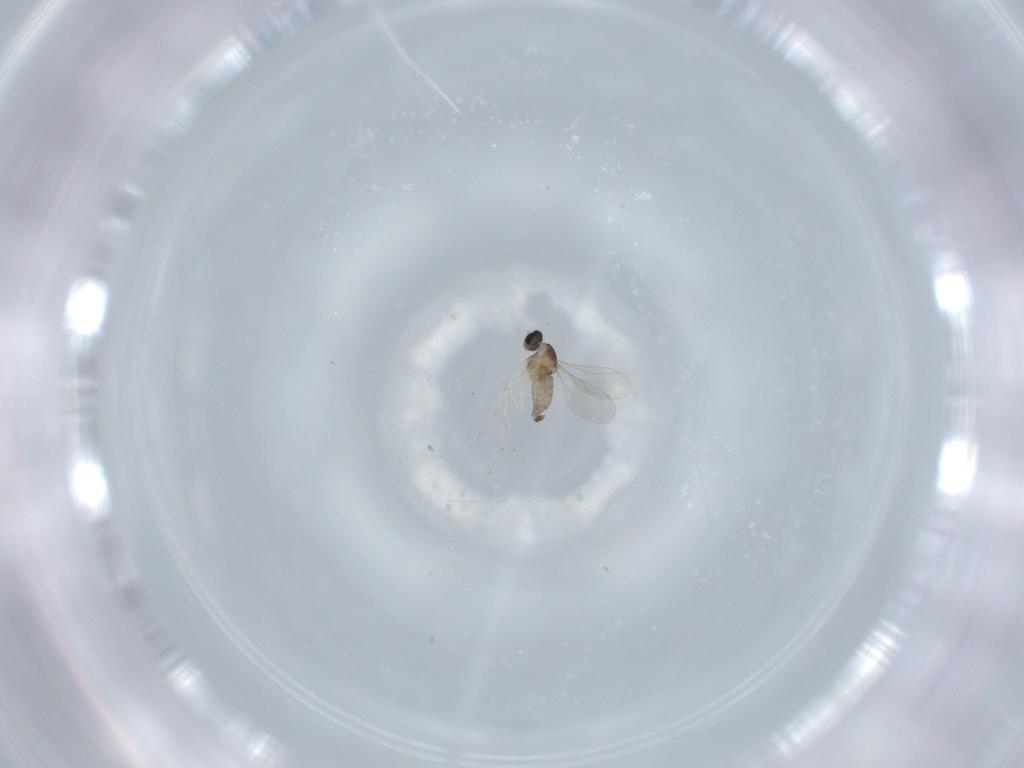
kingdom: Animalia
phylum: Arthropoda
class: Insecta
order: Diptera
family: Cecidomyiidae
